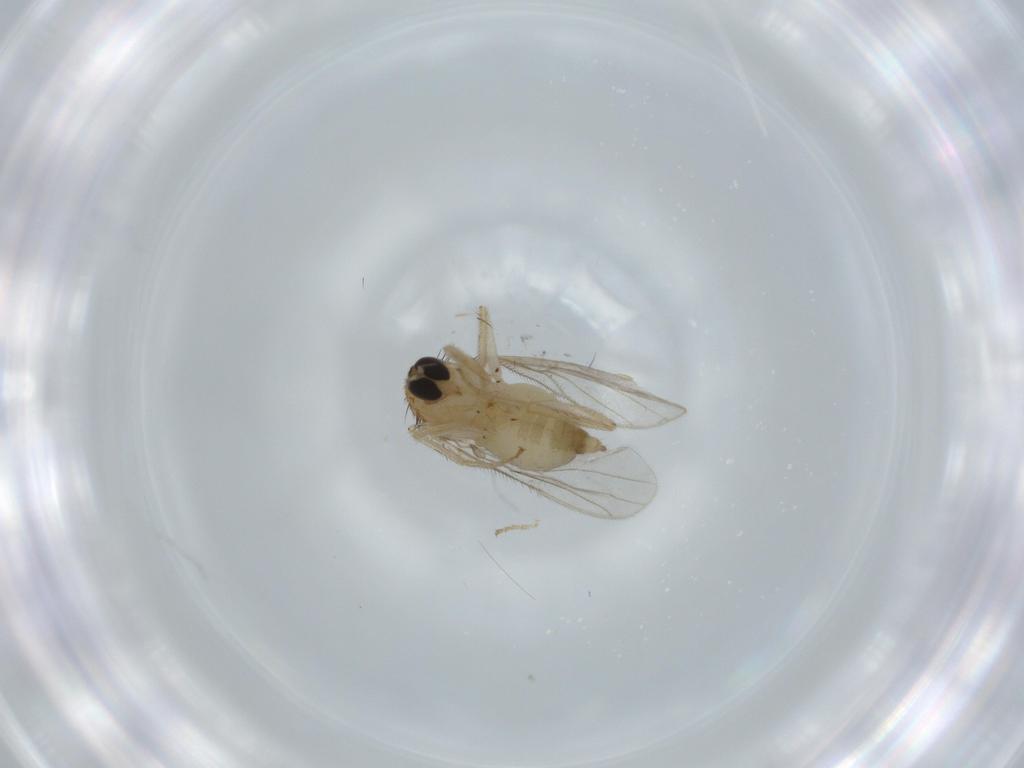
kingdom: Animalia
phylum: Arthropoda
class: Insecta
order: Diptera
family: Hybotidae
